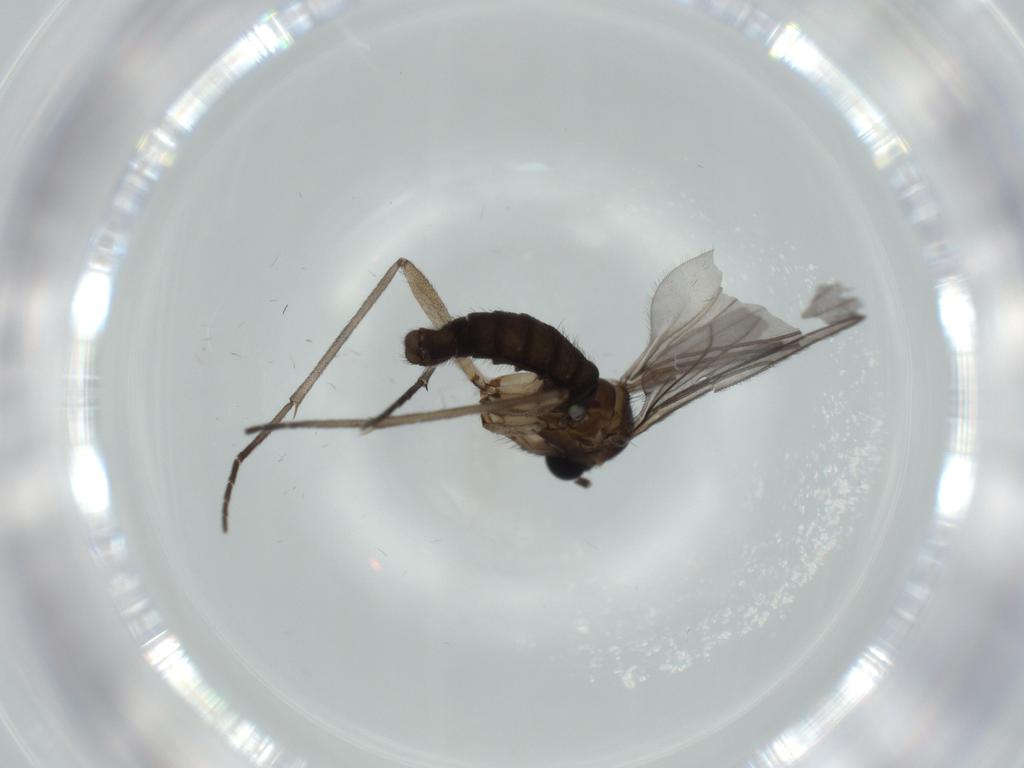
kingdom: Animalia
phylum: Arthropoda
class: Insecta
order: Diptera
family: Sciaridae
